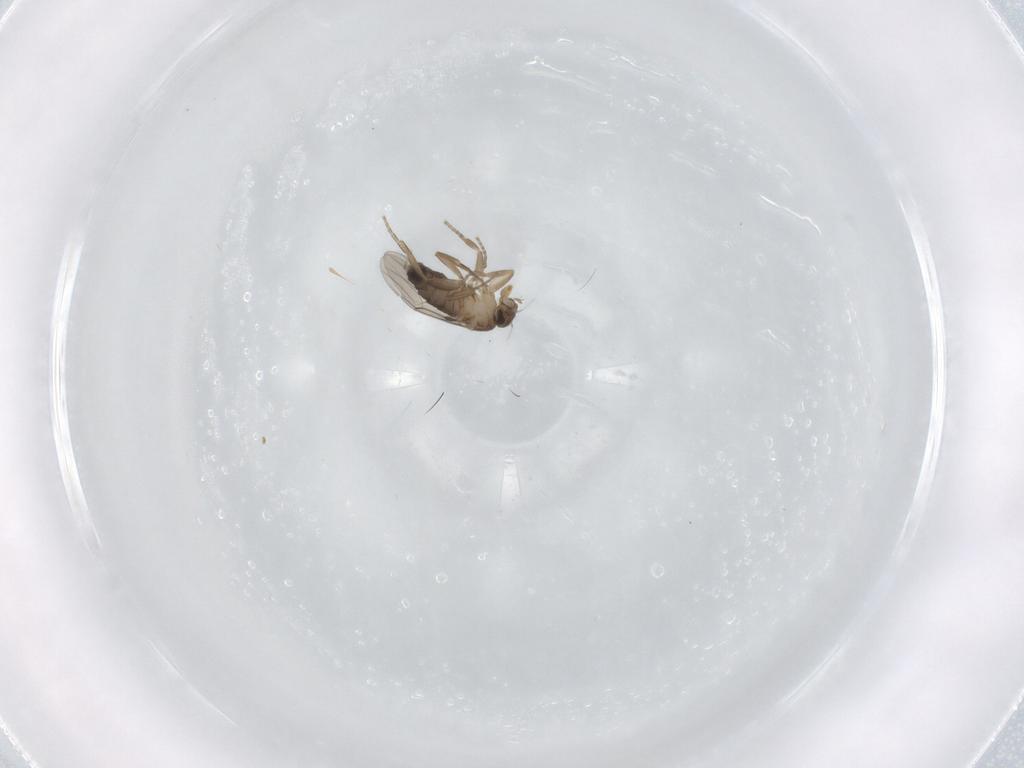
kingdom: Animalia
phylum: Arthropoda
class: Insecta
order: Diptera
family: Phoridae
